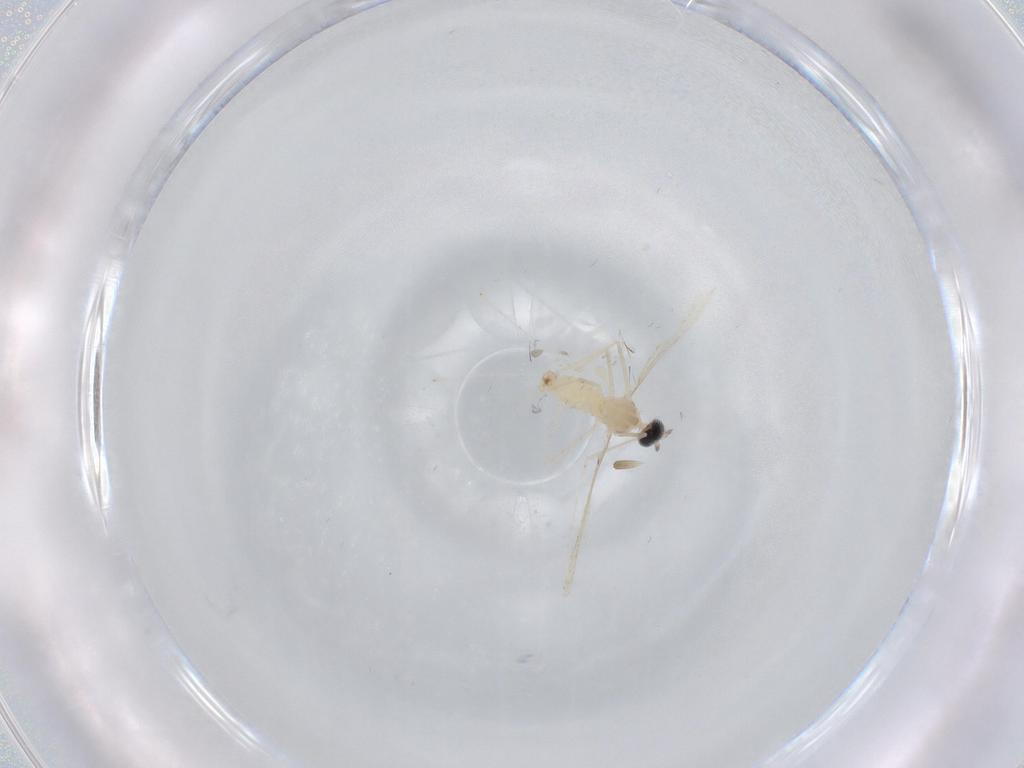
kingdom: Animalia
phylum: Arthropoda
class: Insecta
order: Diptera
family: Cecidomyiidae
